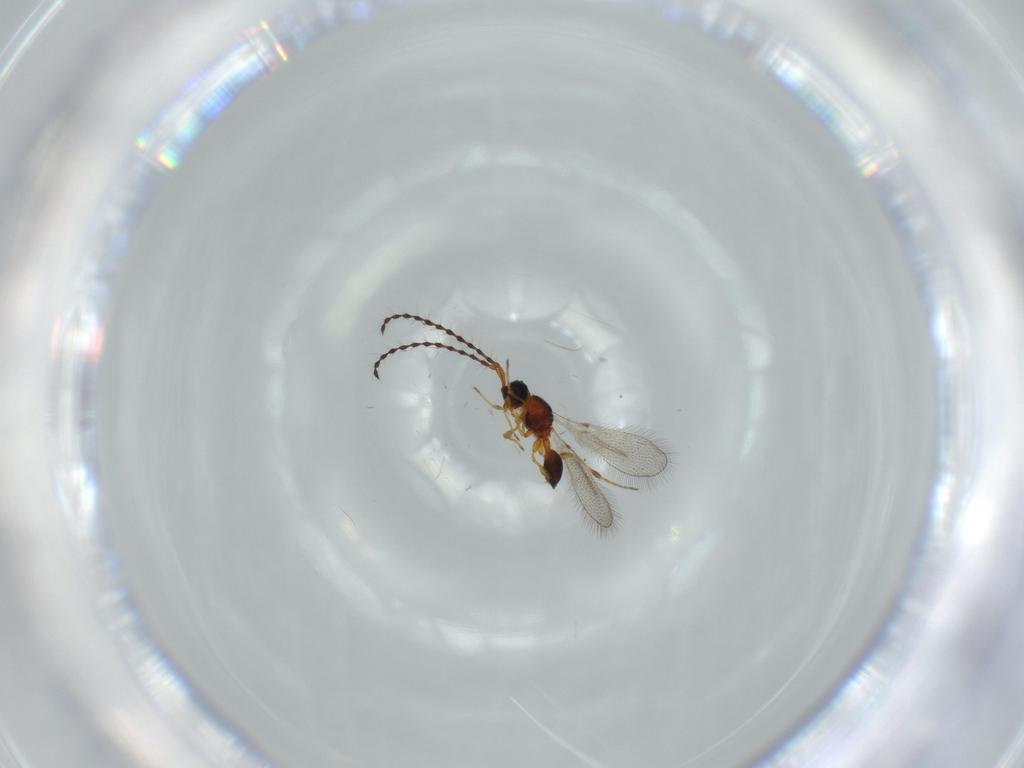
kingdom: Animalia
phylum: Arthropoda
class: Insecta
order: Hymenoptera
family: Diapriidae
